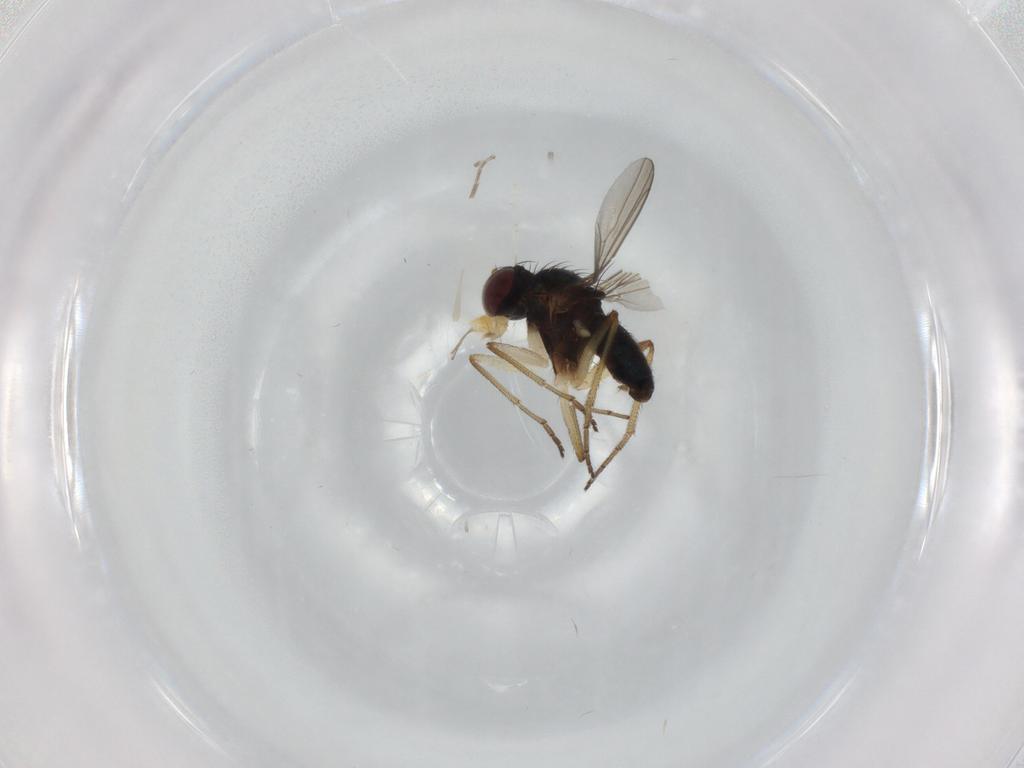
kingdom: Animalia
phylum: Arthropoda
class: Insecta
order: Diptera
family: Dolichopodidae
